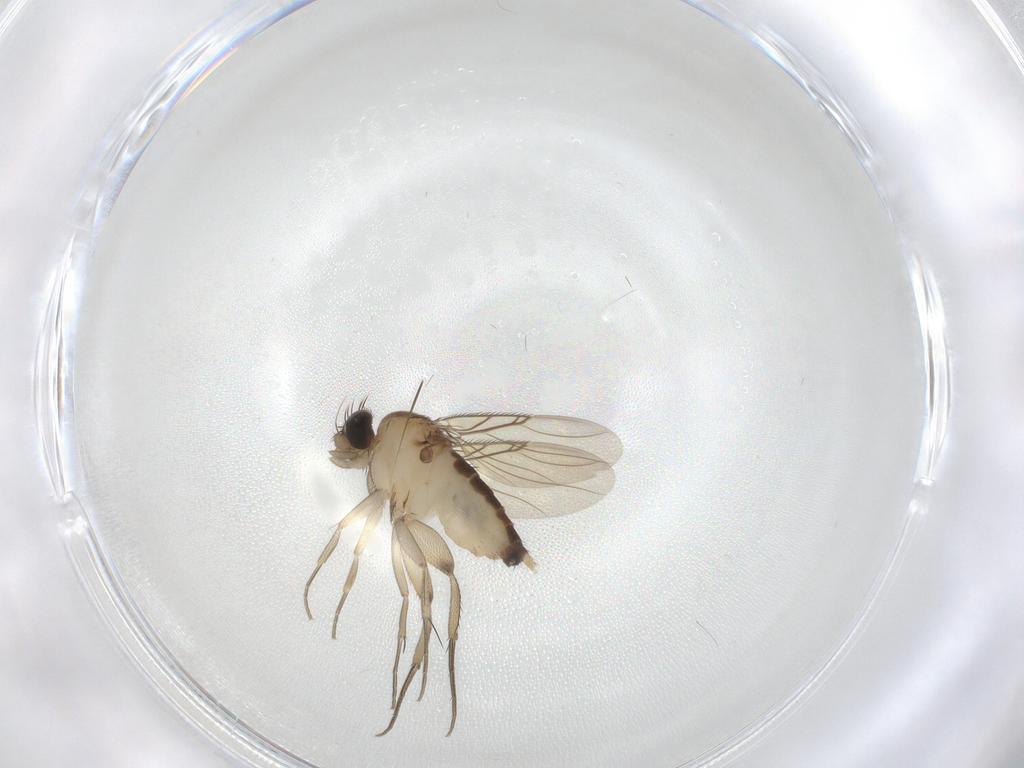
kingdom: Animalia
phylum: Arthropoda
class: Insecta
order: Diptera
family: Phoridae
